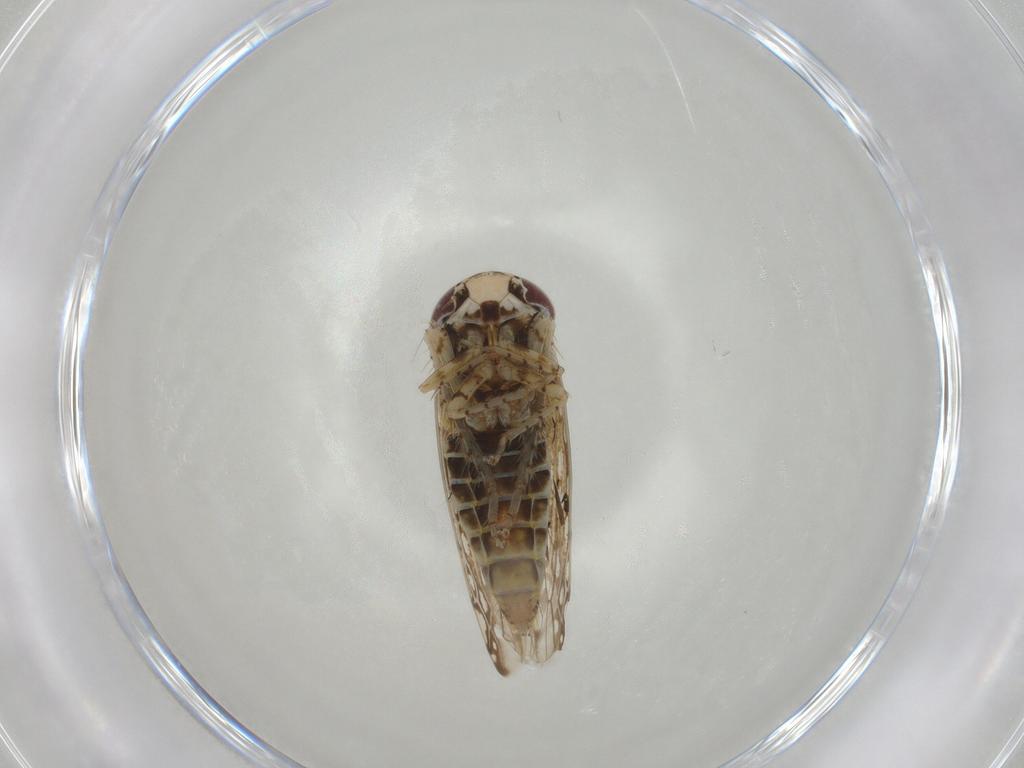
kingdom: Animalia
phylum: Arthropoda
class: Insecta
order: Hemiptera
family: Cicadellidae
